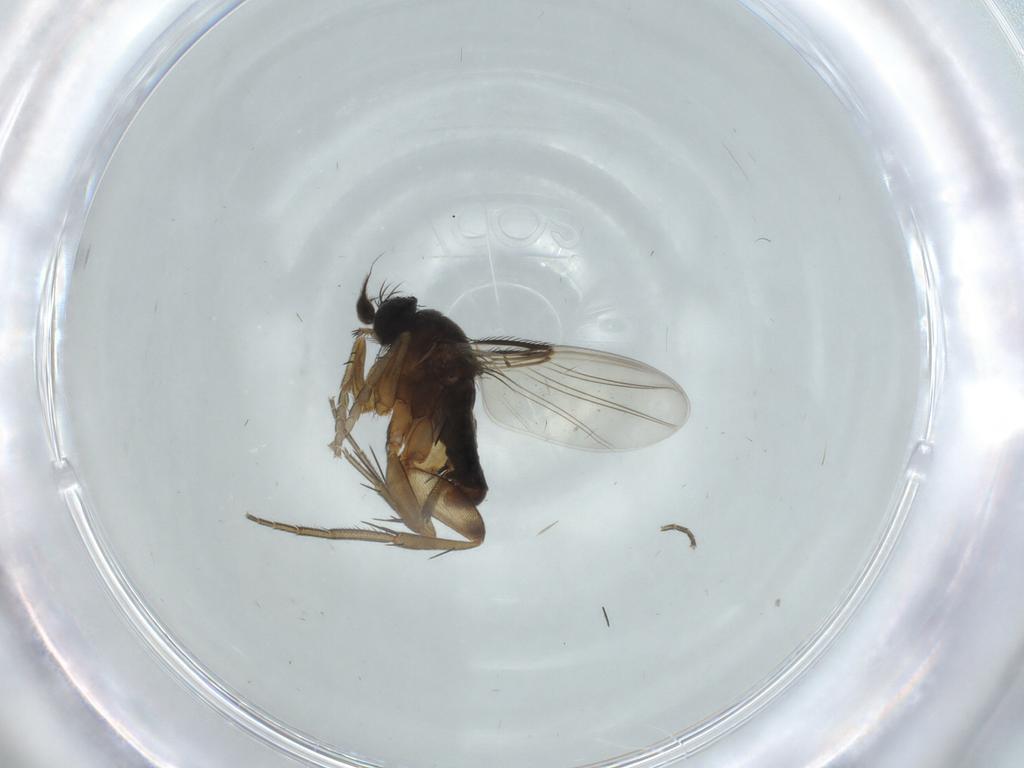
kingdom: Animalia
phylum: Arthropoda
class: Insecta
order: Diptera
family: Phoridae
